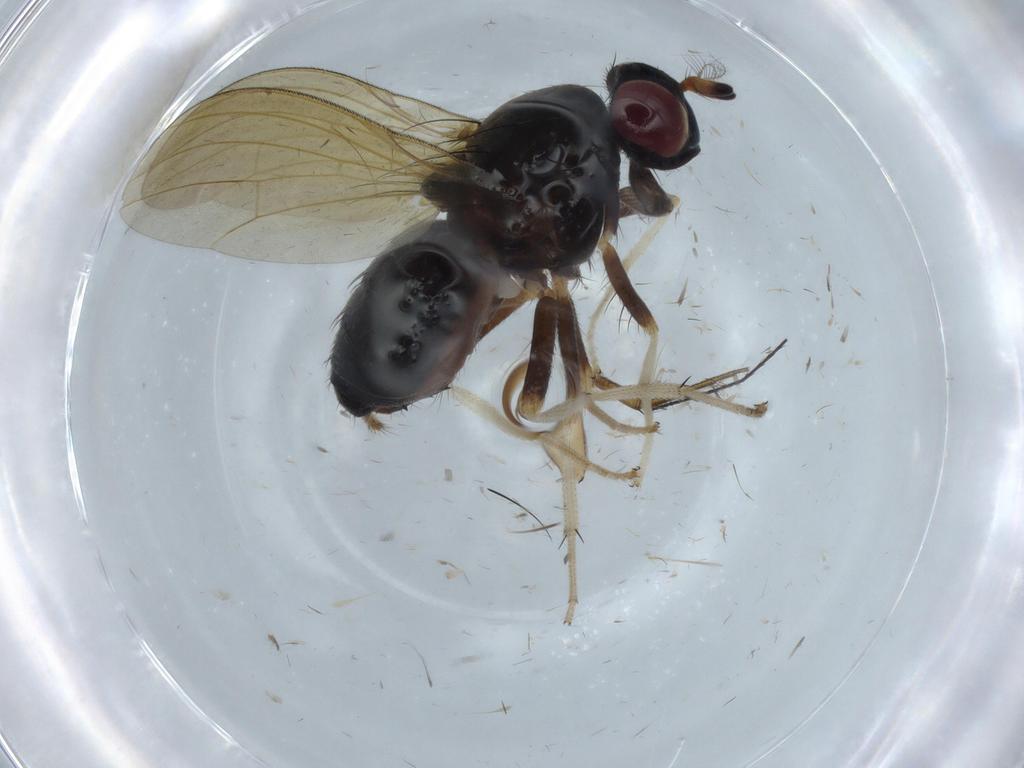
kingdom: Animalia
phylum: Arthropoda
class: Insecta
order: Diptera
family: Lauxaniidae
